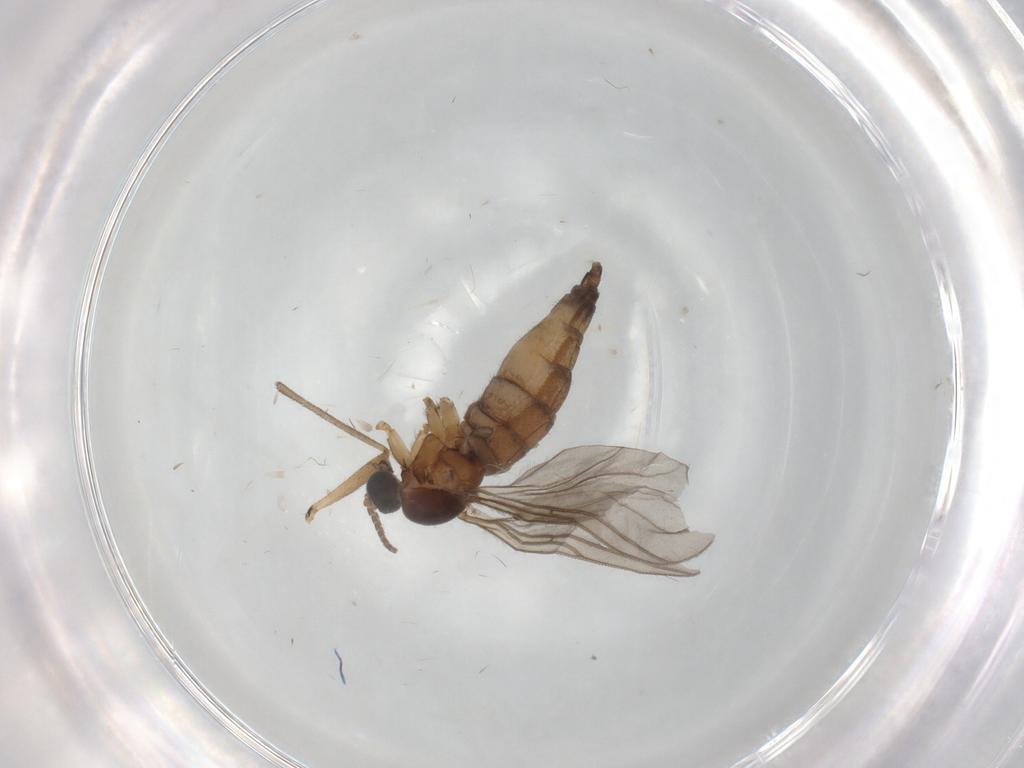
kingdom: Animalia
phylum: Arthropoda
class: Insecta
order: Diptera
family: Sciaridae
